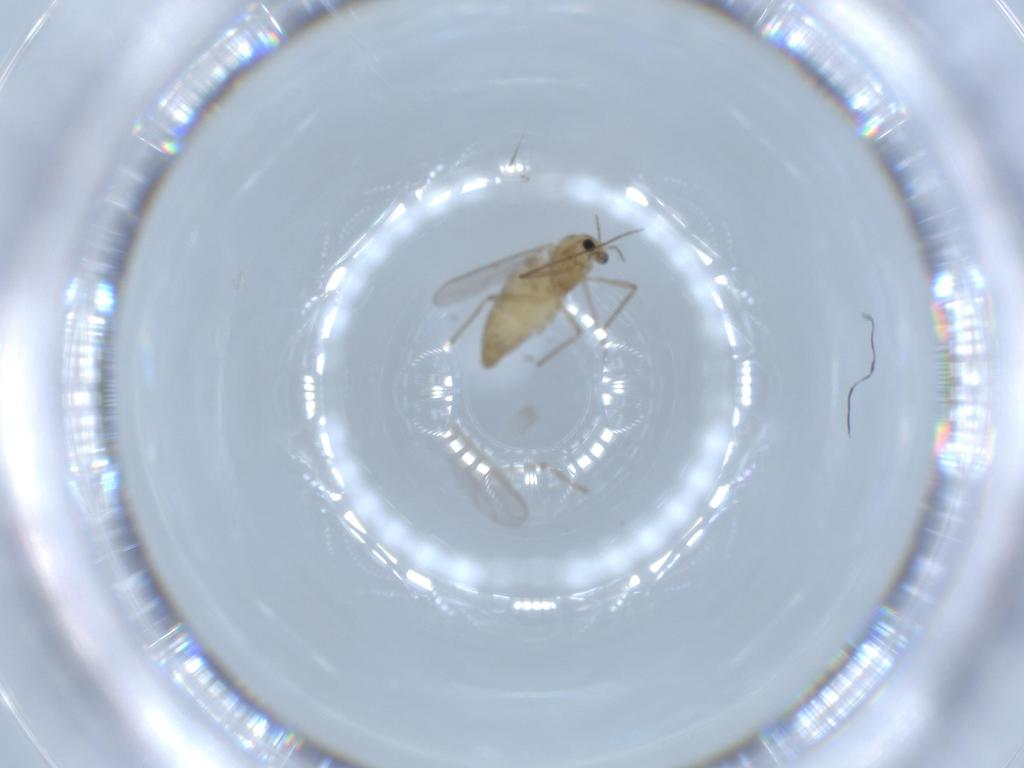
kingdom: Animalia
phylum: Arthropoda
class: Insecta
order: Diptera
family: Chironomidae
